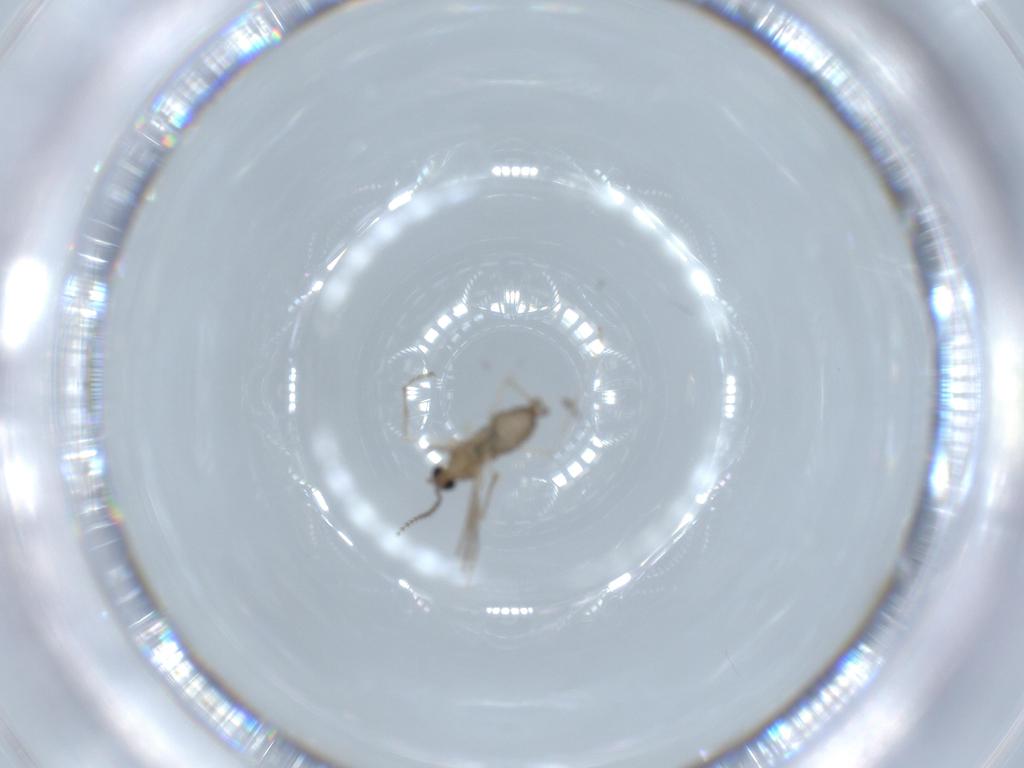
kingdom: Animalia
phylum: Arthropoda
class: Insecta
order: Diptera
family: Cecidomyiidae
